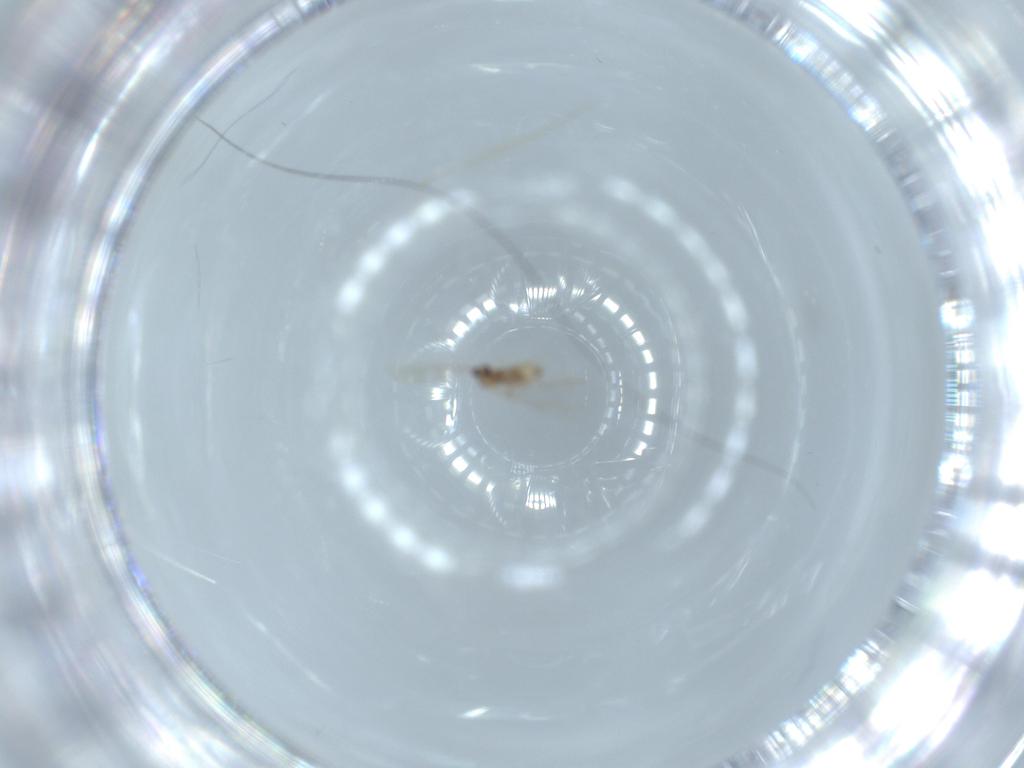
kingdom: Animalia
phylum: Arthropoda
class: Insecta
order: Diptera
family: Cecidomyiidae
